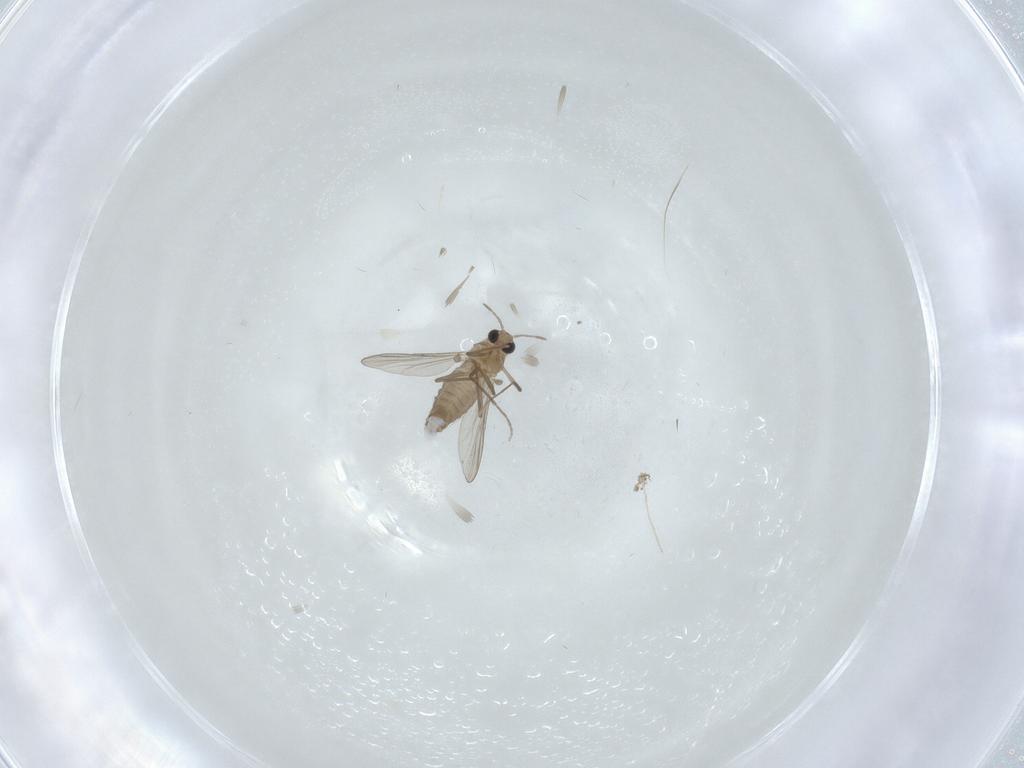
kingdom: Animalia
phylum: Arthropoda
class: Insecta
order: Diptera
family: Chironomidae
